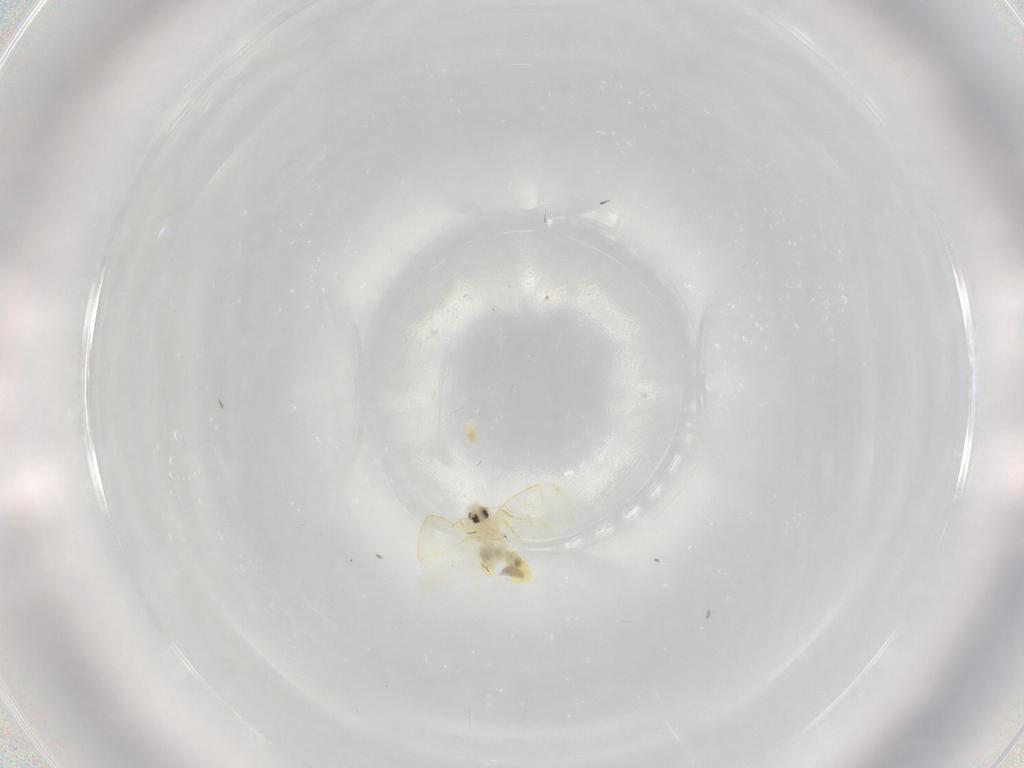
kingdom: Animalia
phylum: Arthropoda
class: Insecta
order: Hemiptera
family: Aleyrodidae
